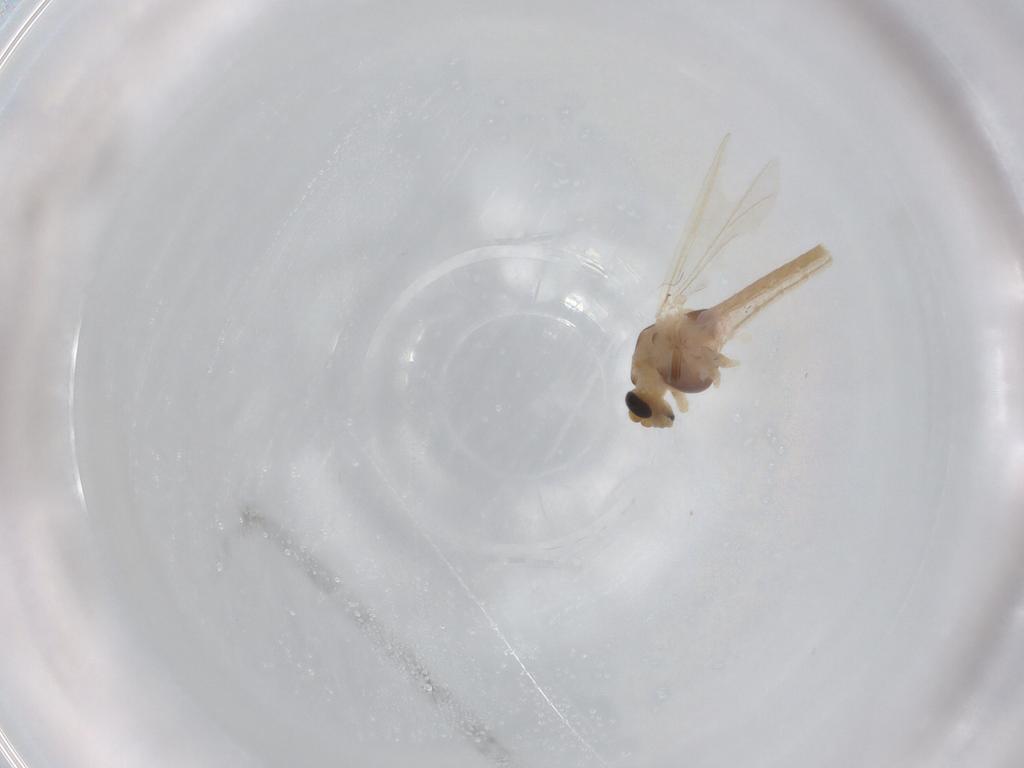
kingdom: Animalia
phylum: Arthropoda
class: Insecta
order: Diptera
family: Chironomidae
